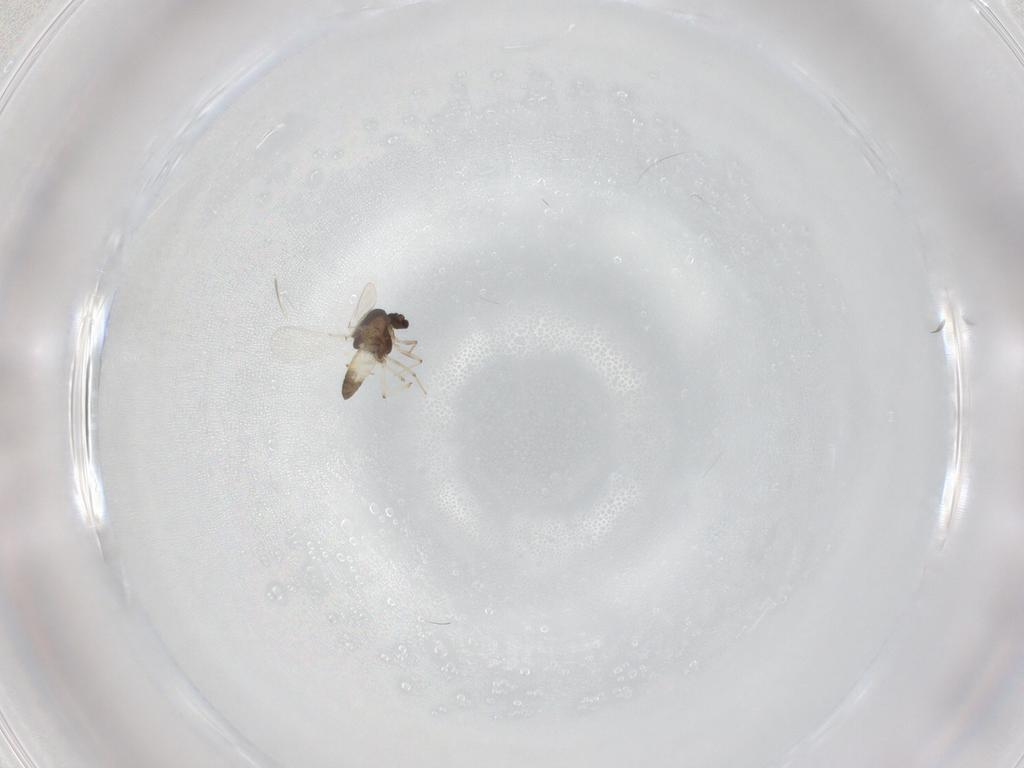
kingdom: Animalia
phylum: Arthropoda
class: Insecta
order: Diptera
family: Chironomidae
